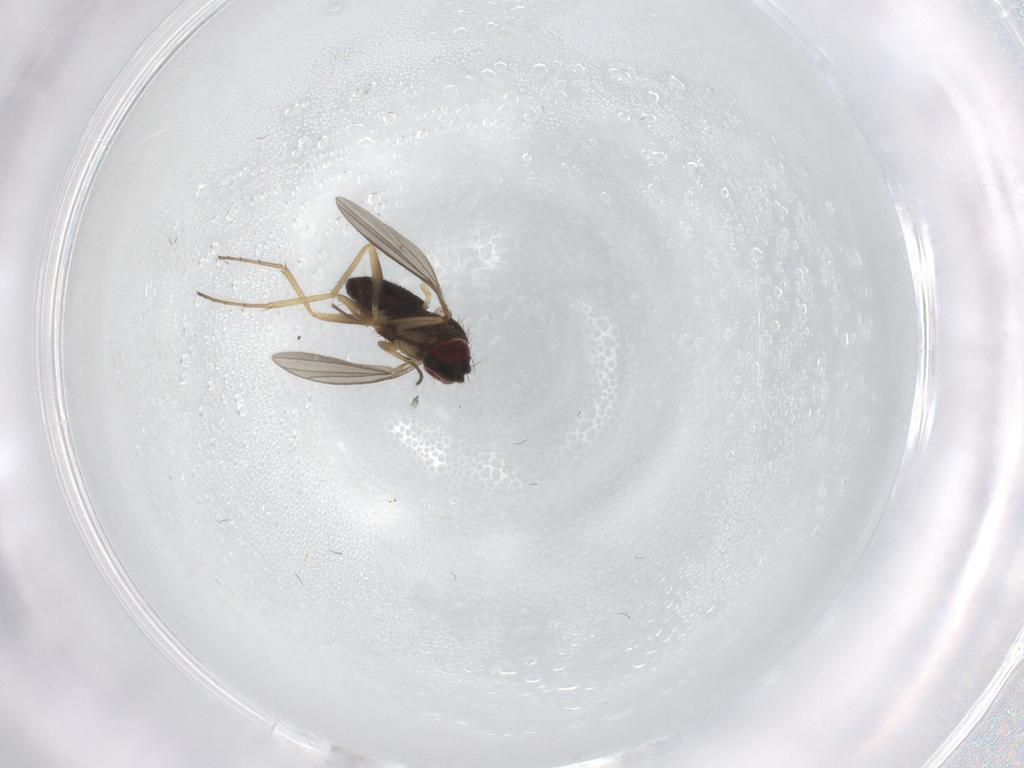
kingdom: Animalia
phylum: Arthropoda
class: Insecta
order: Diptera
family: Dolichopodidae
